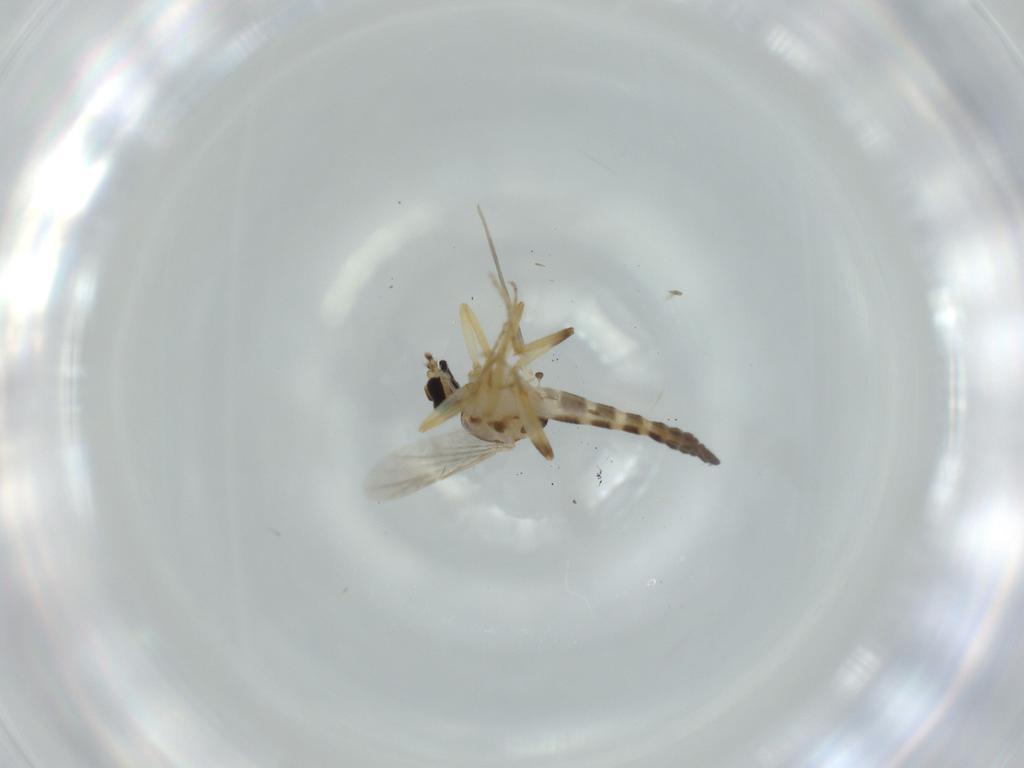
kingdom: Animalia
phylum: Arthropoda
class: Insecta
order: Diptera
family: Ceratopogonidae
